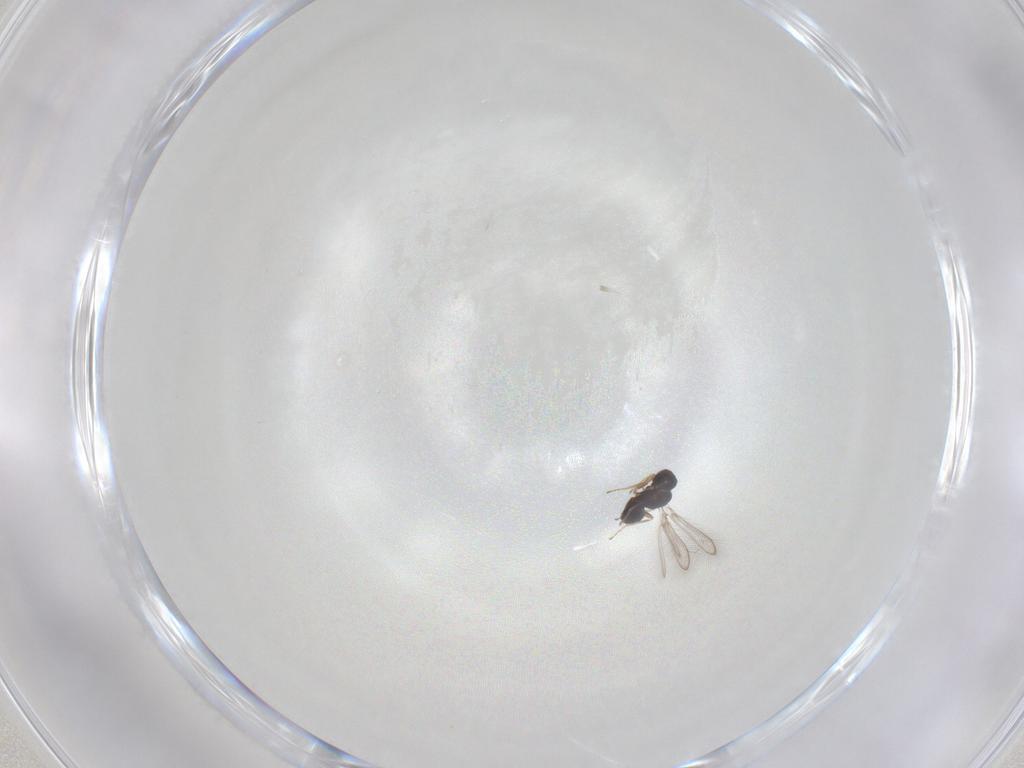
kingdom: Animalia
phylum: Arthropoda
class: Insecta
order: Hymenoptera
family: Mymaridae
